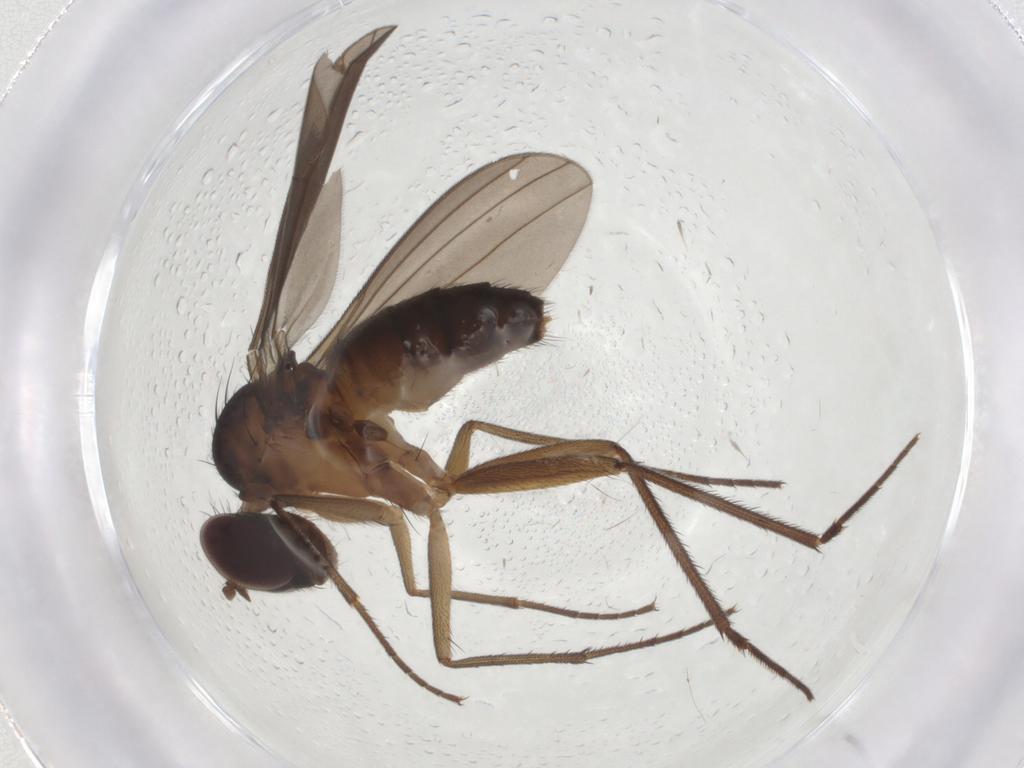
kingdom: Animalia
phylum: Arthropoda
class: Insecta
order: Diptera
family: Dolichopodidae
